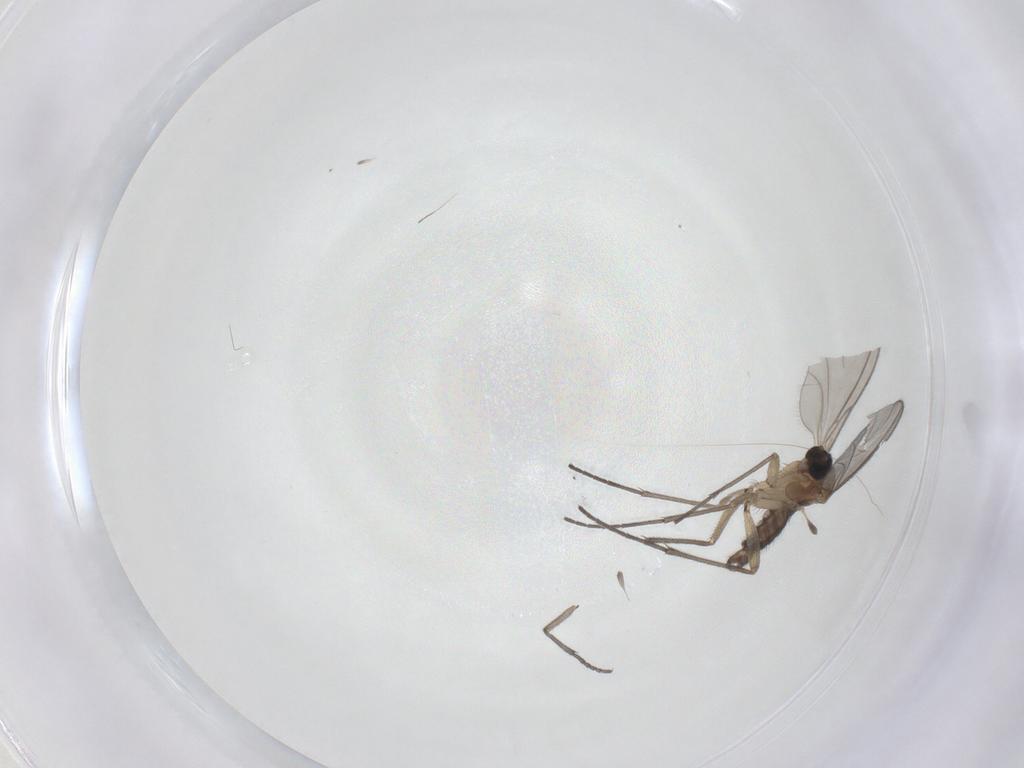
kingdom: Animalia
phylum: Arthropoda
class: Insecta
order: Diptera
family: Sciaridae
